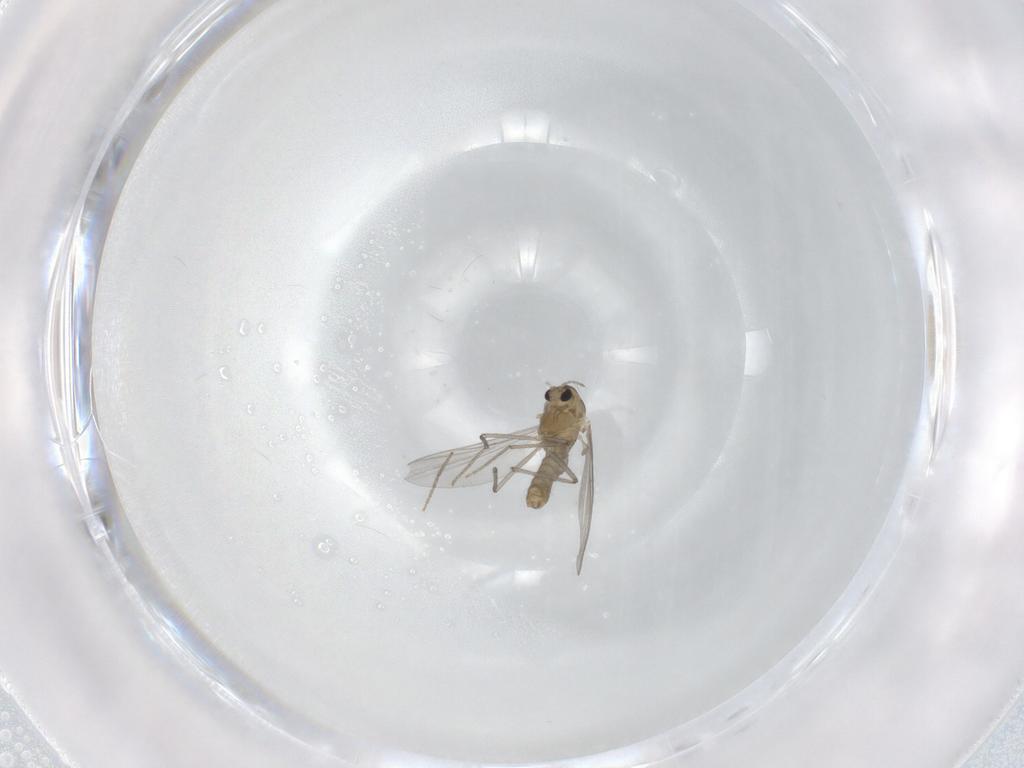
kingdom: Animalia
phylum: Arthropoda
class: Insecta
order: Diptera
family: Chironomidae
